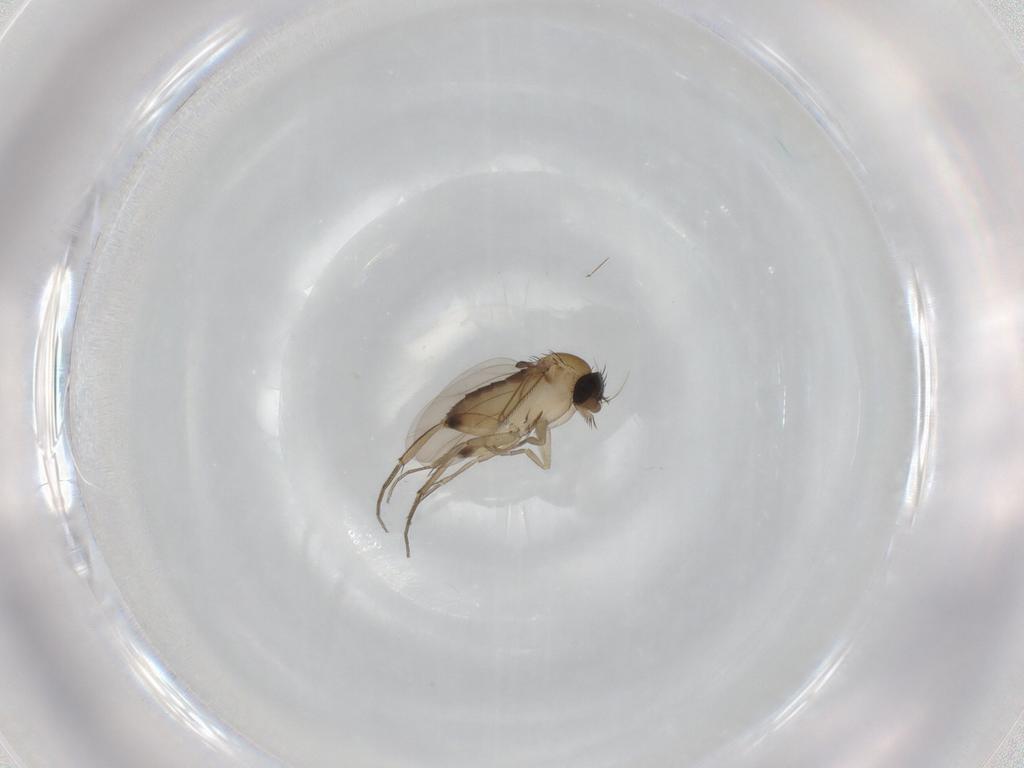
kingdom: Animalia
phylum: Arthropoda
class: Insecta
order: Diptera
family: Phoridae
